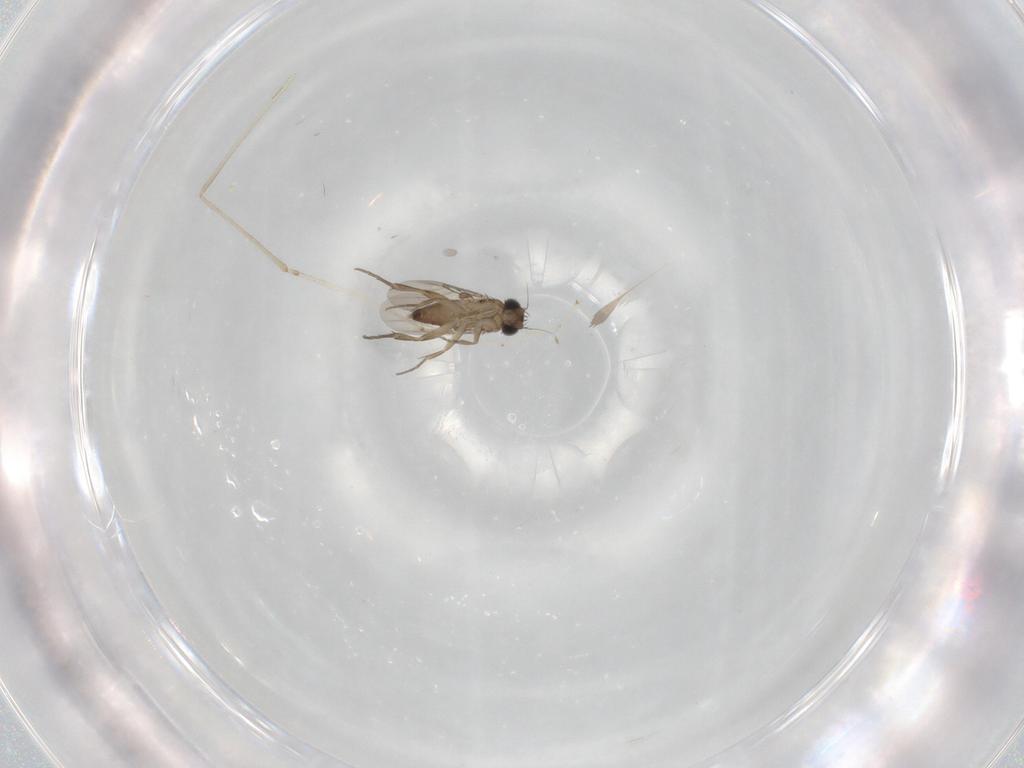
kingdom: Animalia
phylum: Arthropoda
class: Insecta
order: Diptera
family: Phoridae
